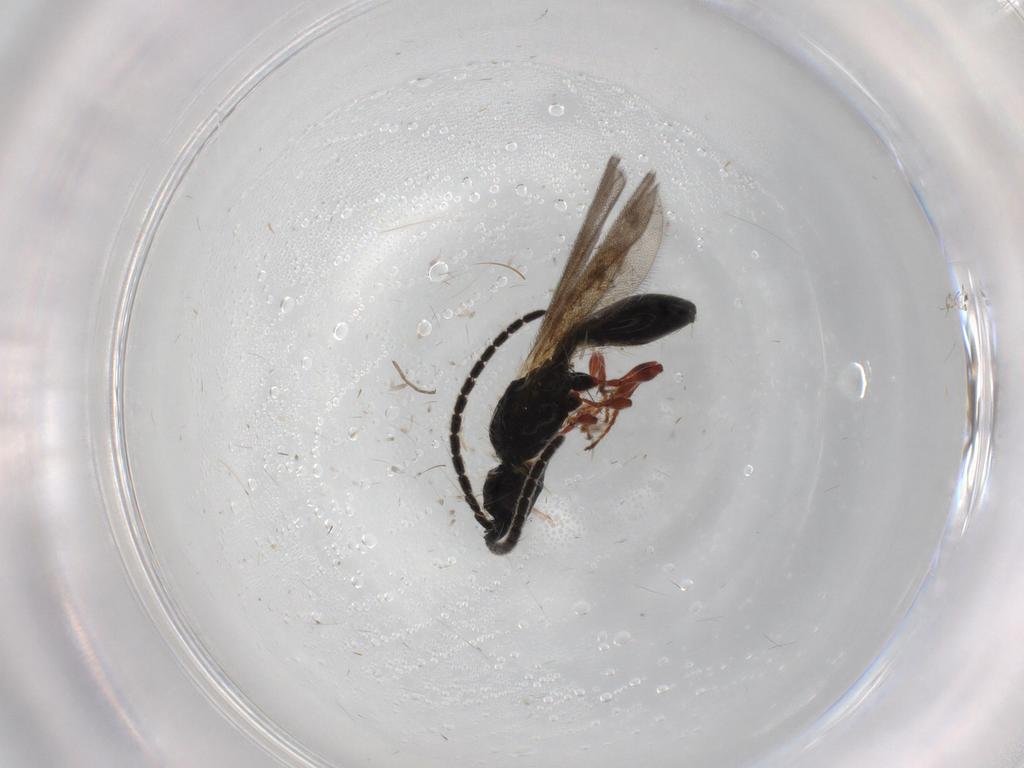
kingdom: Animalia
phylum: Arthropoda
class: Insecta
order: Hymenoptera
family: Diapriidae
